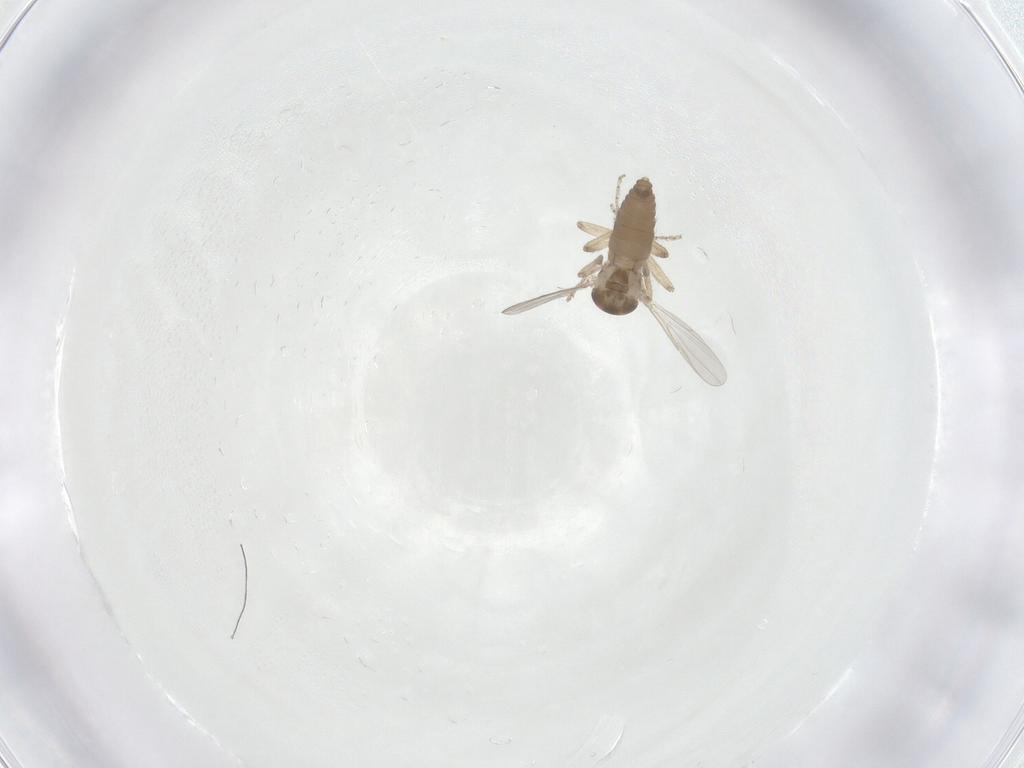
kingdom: Animalia
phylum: Arthropoda
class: Insecta
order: Diptera
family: Ceratopogonidae
